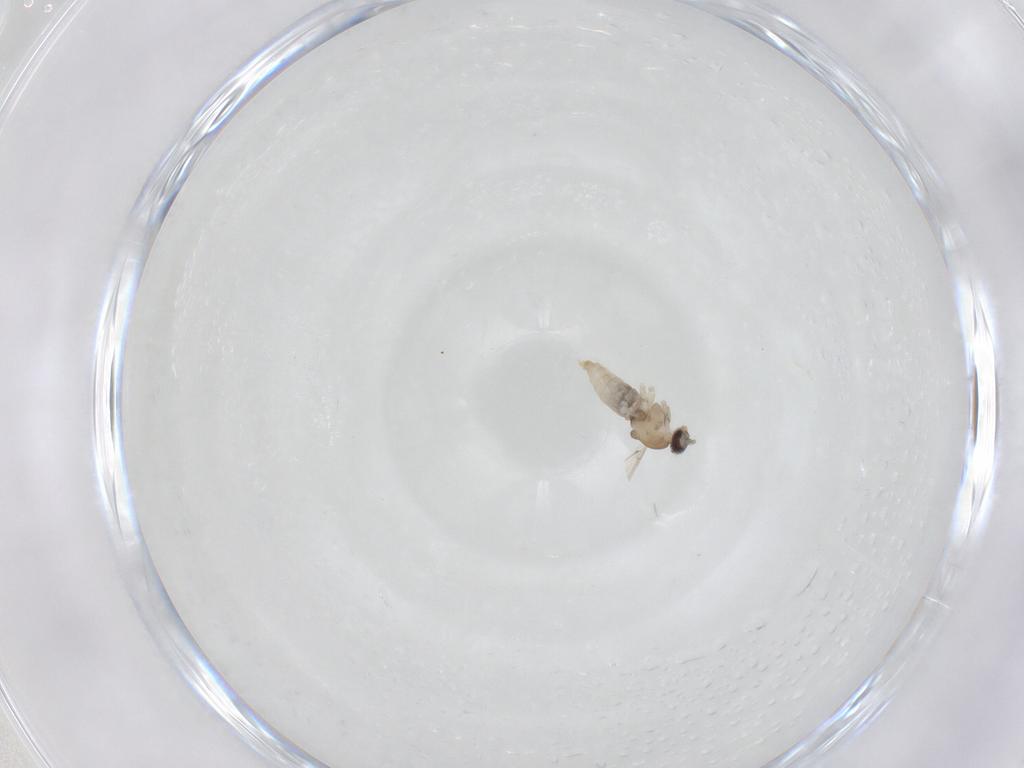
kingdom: Animalia
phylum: Arthropoda
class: Insecta
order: Diptera
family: Cecidomyiidae
